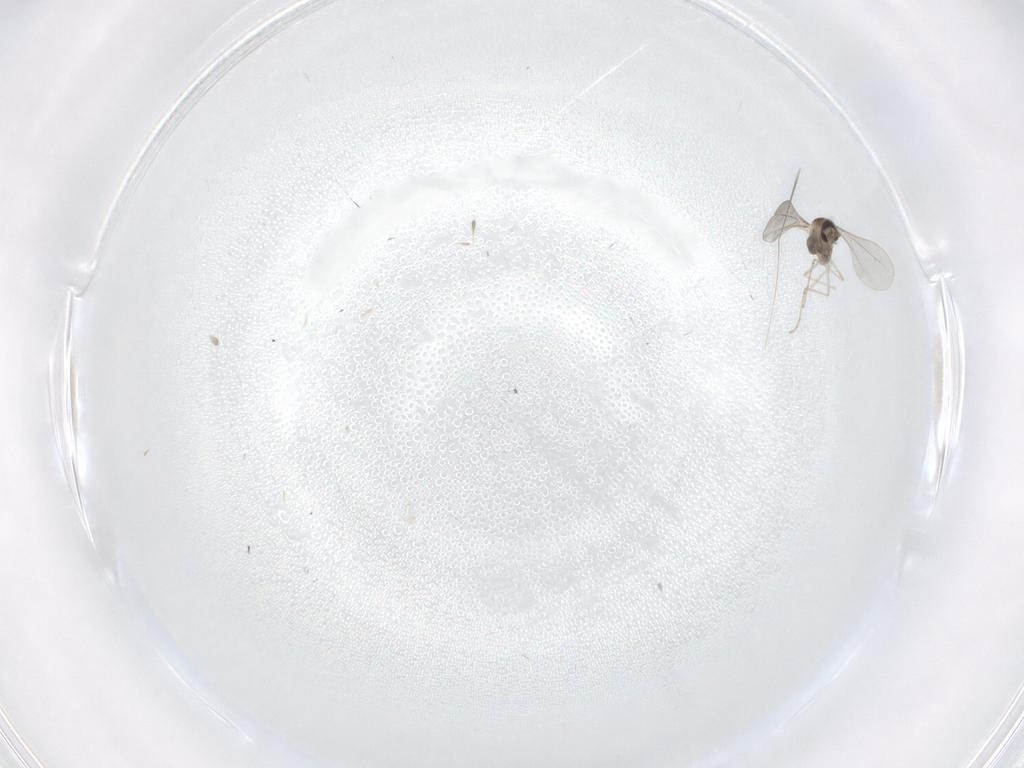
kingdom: Animalia
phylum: Arthropoda
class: Insecta
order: Diptera
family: Cecidomyiidae
